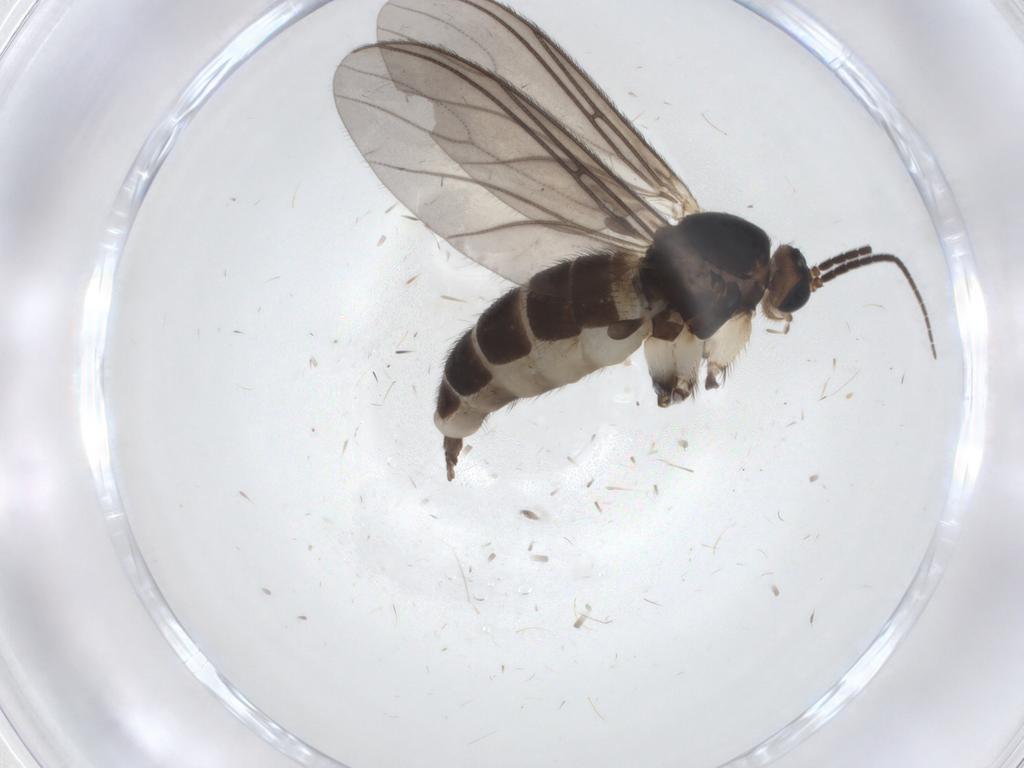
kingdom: Animalia
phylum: Arthropoda
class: Insecta
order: Diptera
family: Sciaridae
